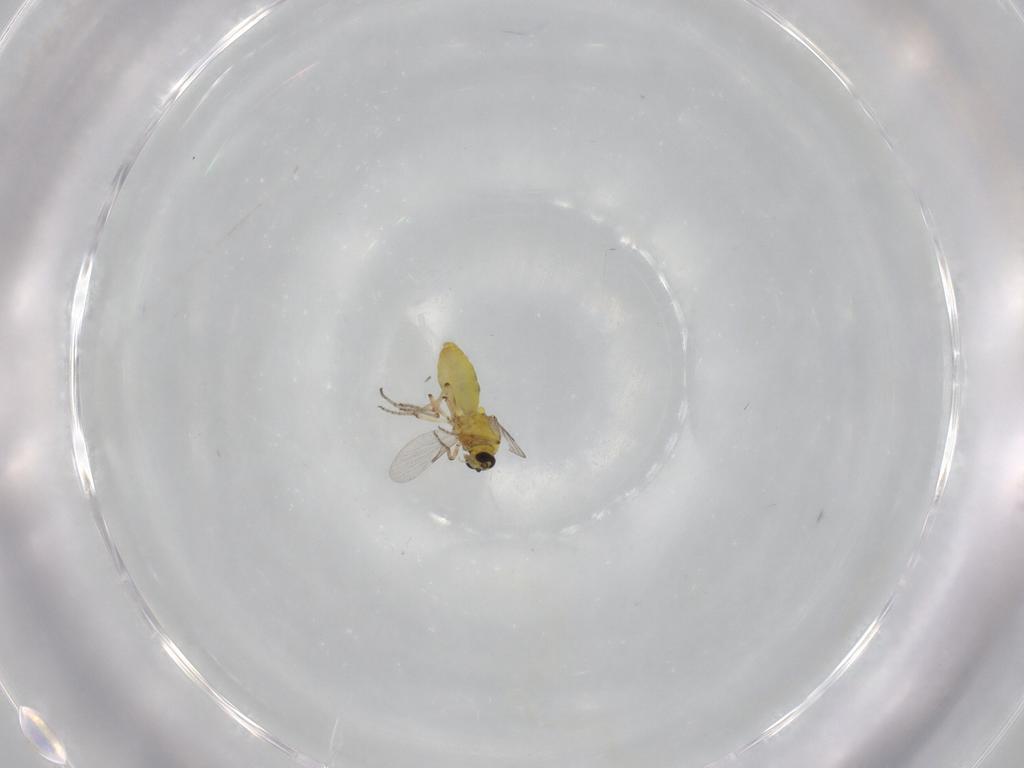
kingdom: Animalia
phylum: Arthropoda
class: Insecta
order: Diptera
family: Ceratopogonidae
